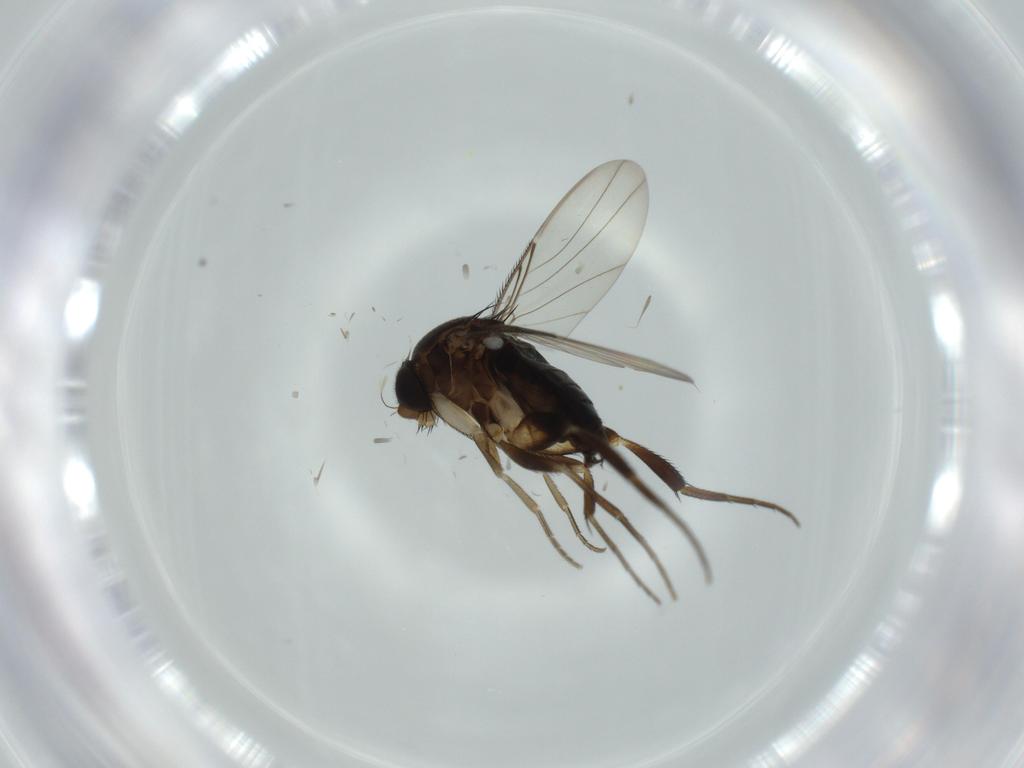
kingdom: Animalia
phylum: Arthropoda
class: Insecta
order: Diptera
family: Phoridae
